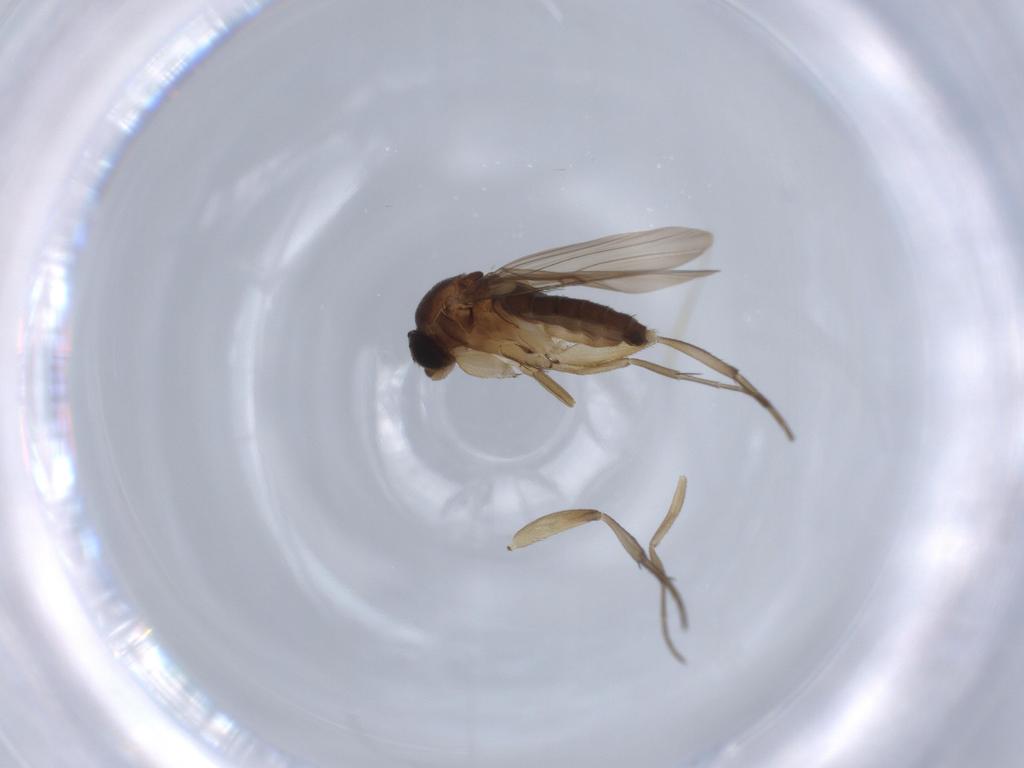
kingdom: Animalia
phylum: Arthropoda
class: Insecta
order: Diptera
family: Phoridae
